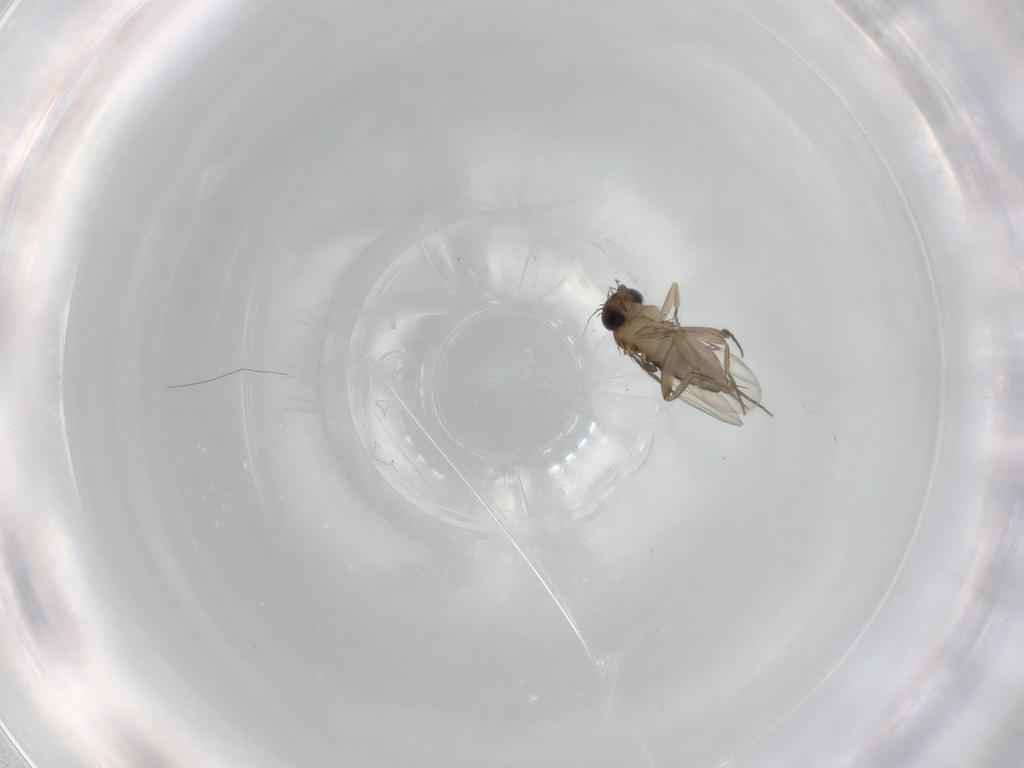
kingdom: Animalia
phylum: Arthropoda
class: Insecta
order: Diptera
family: Phoridae
